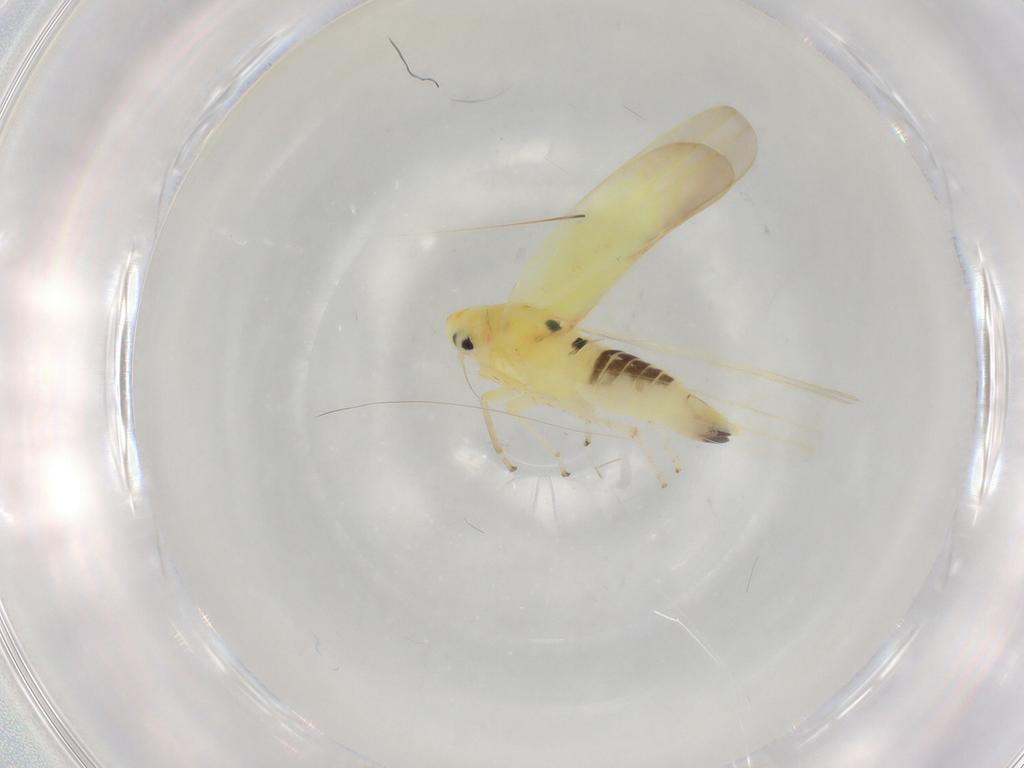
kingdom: Animalia
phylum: Arthropoda
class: Insecta
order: Hemiptera
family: Cicadellidae
